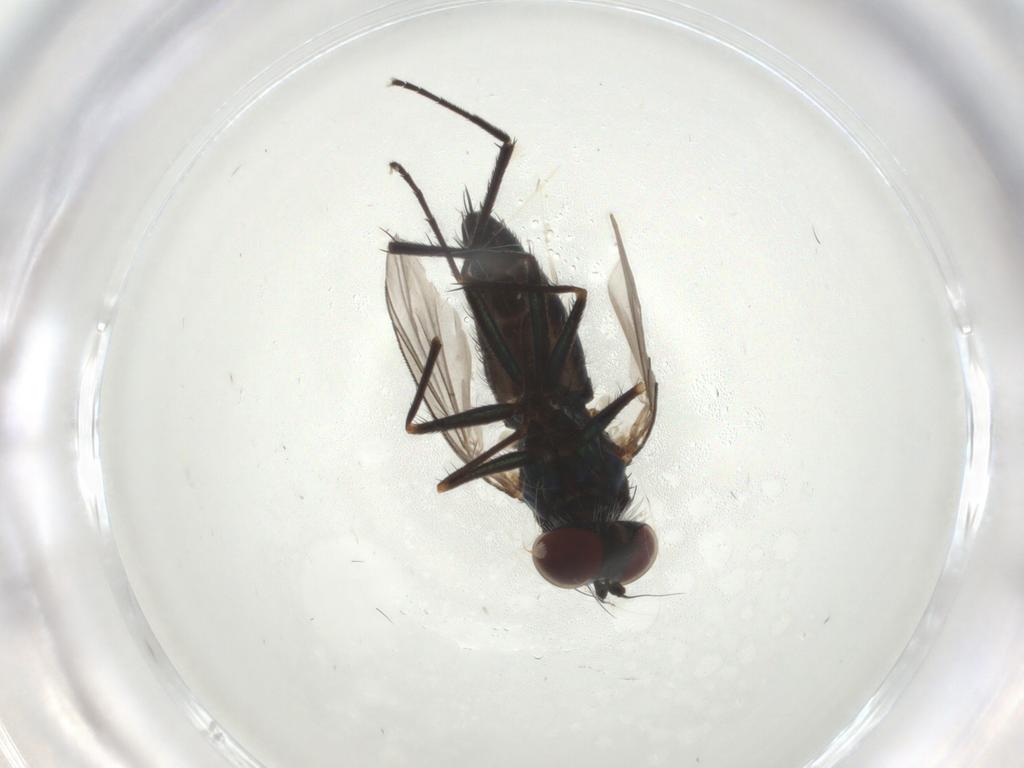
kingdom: Animalia
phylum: Arthropoda
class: Insecta
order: Diptera
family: Dolichopodidae
